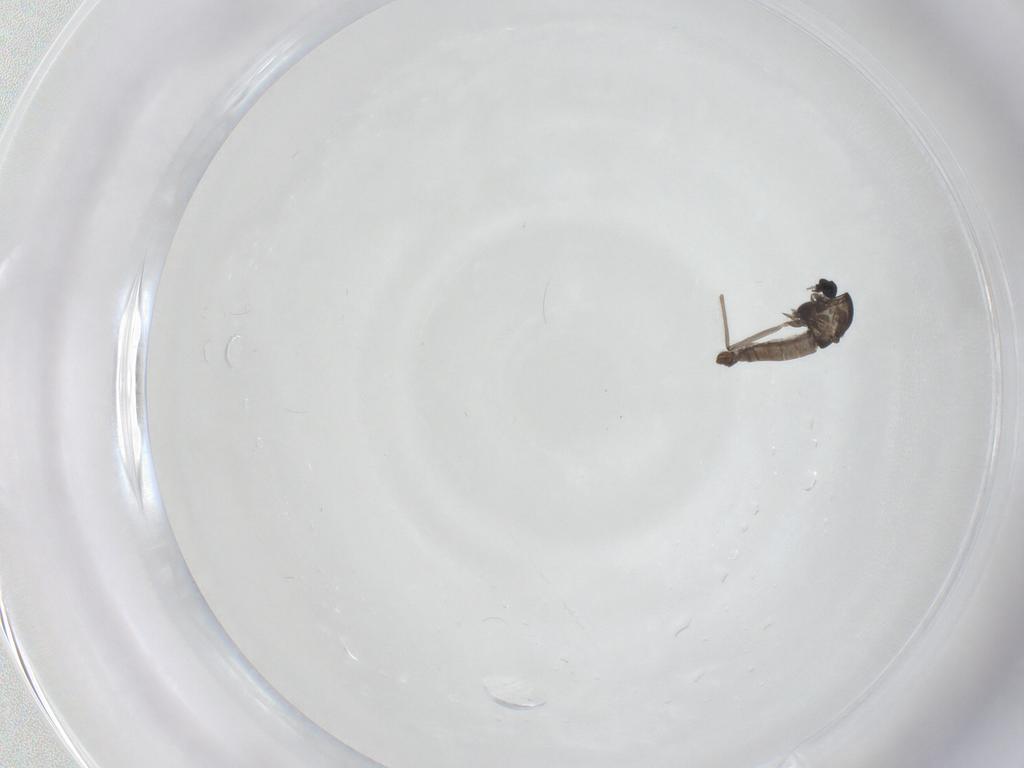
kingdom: Animalia
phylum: Arthropoda
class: Insecta
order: Diptera
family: Chironomidae
